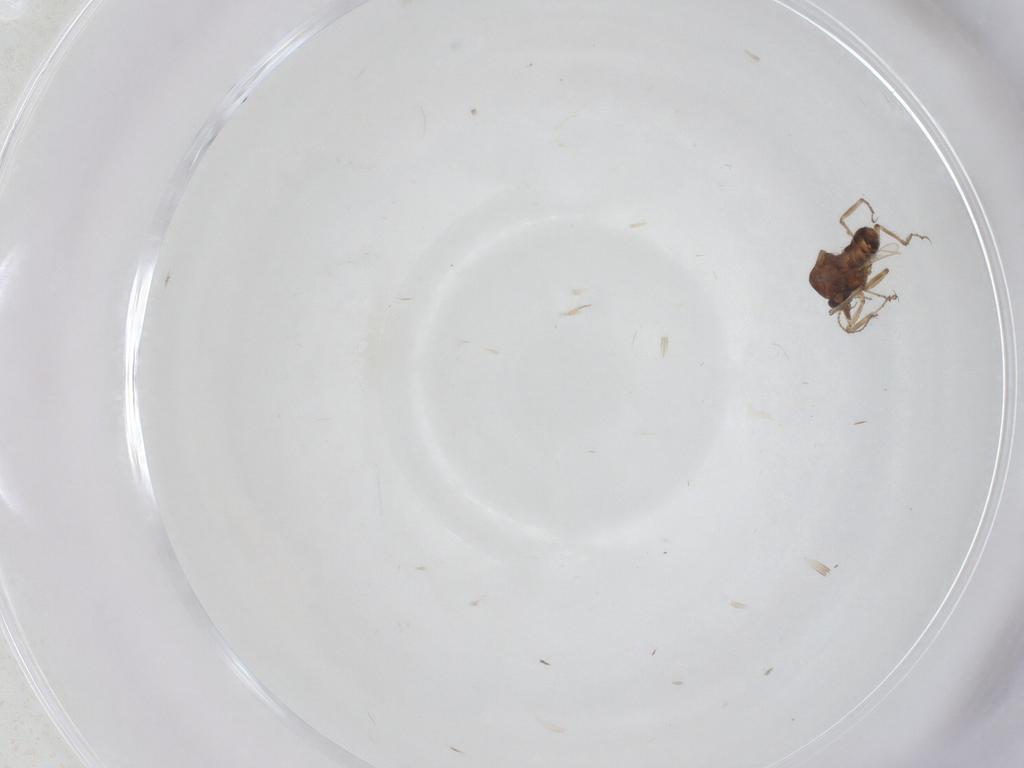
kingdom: Animalia
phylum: Arthropoda
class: Insecta
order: Diptera
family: Ceratopogonidae
